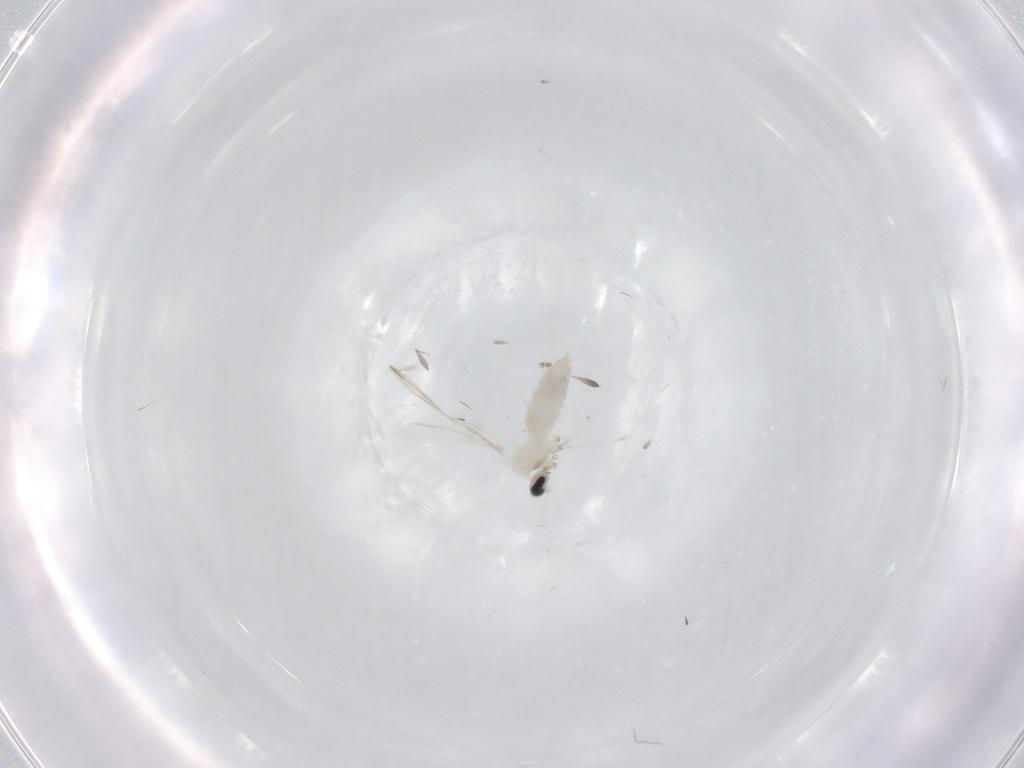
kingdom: Animalia
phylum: Arthropoda
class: Insecta
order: Diptera
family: Cecidomyiidae
